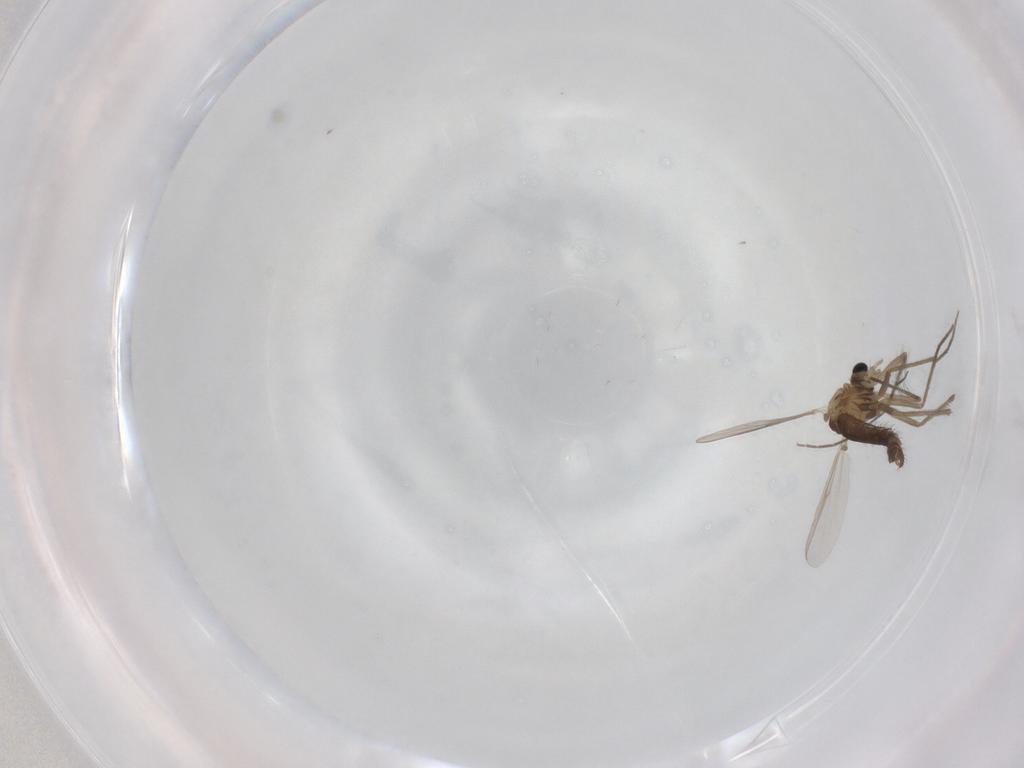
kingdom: Animalia
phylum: Arthropoda
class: Insecta
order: Diptera
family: Chironomidae
